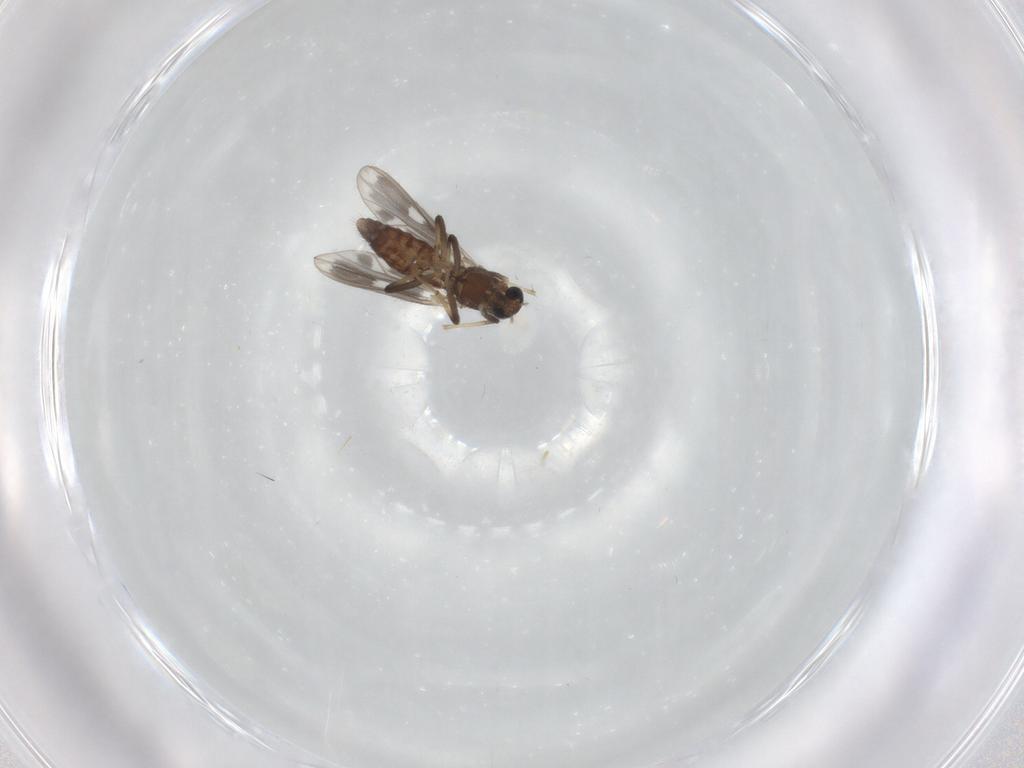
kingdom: Animalia
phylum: Arthropoda
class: Insecta
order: Diptera
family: Chironomidae
